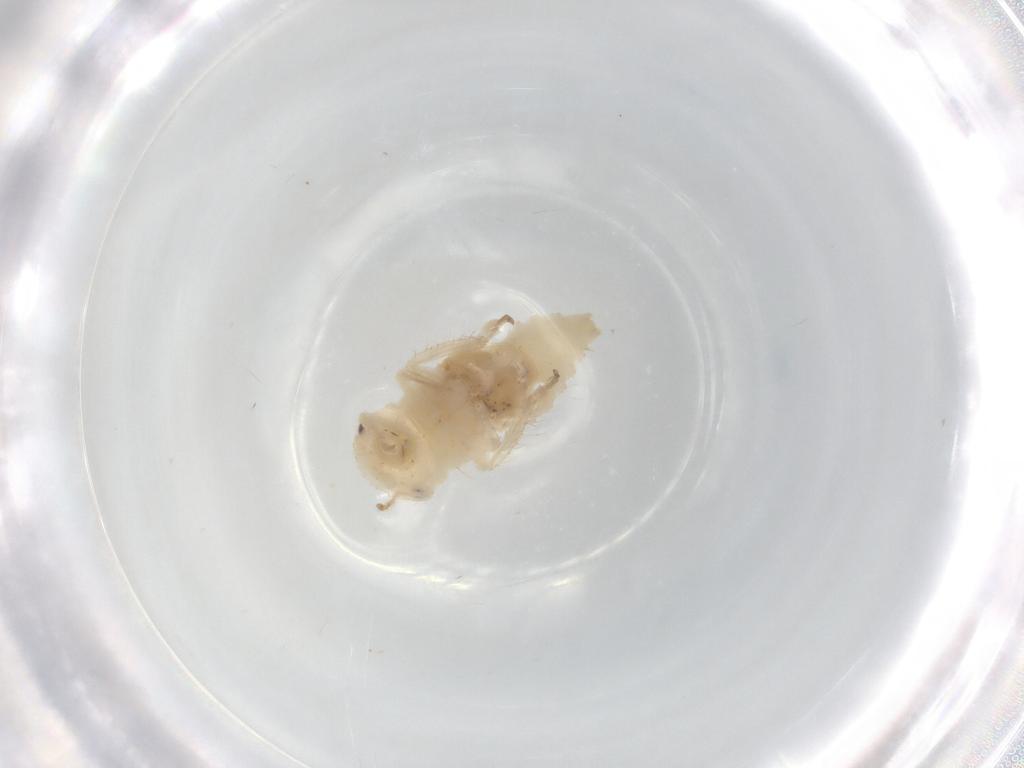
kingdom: Animalia
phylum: Arthropoda
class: Insecta
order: Hemiptera
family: Cicadellidae
